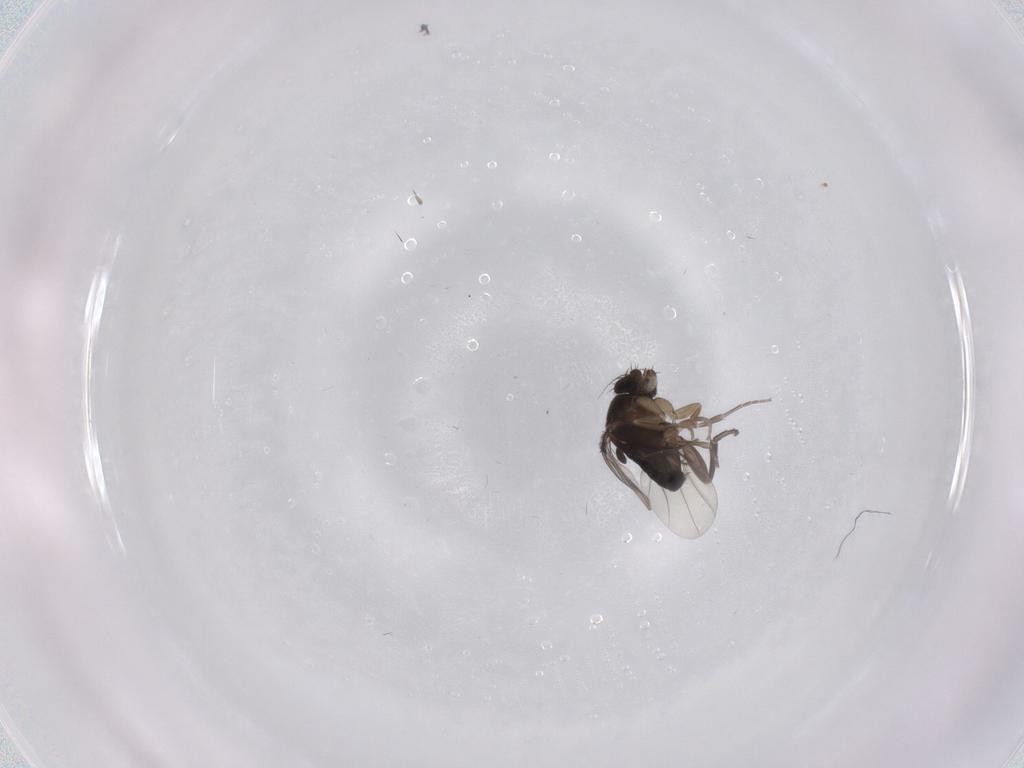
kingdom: Animalia
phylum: Arthropoda
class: Insecta
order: Diptera
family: Phoridae
